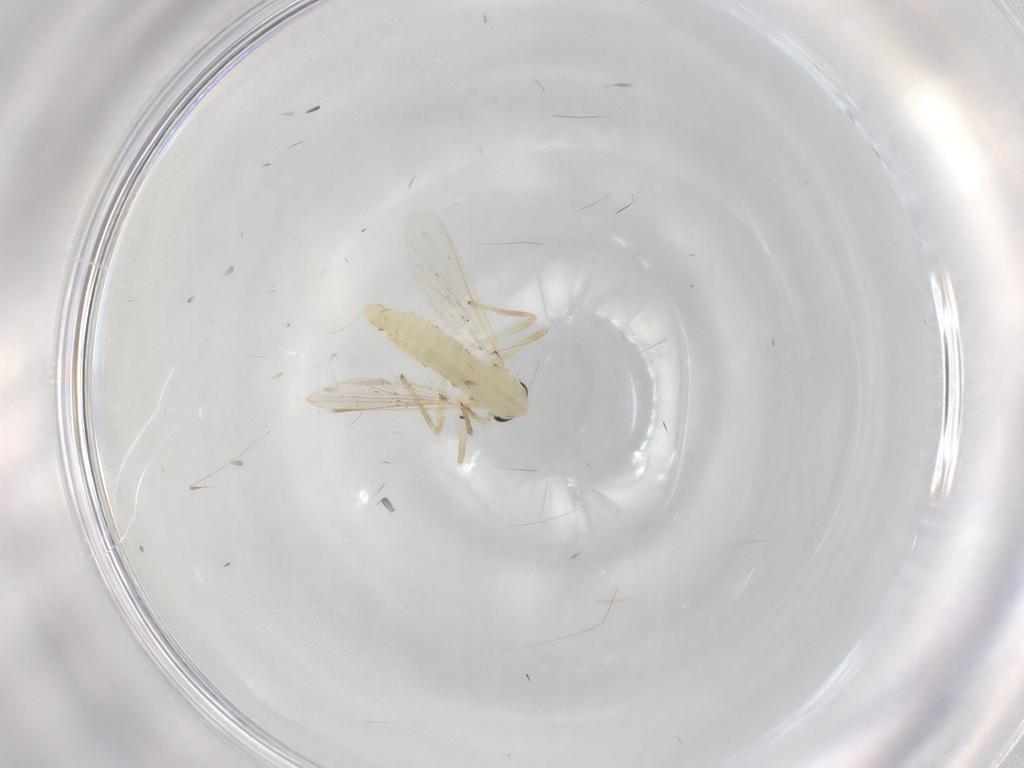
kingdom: Animalia
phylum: Arthropoda
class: Insecta
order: Diptera
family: Chironomidae
